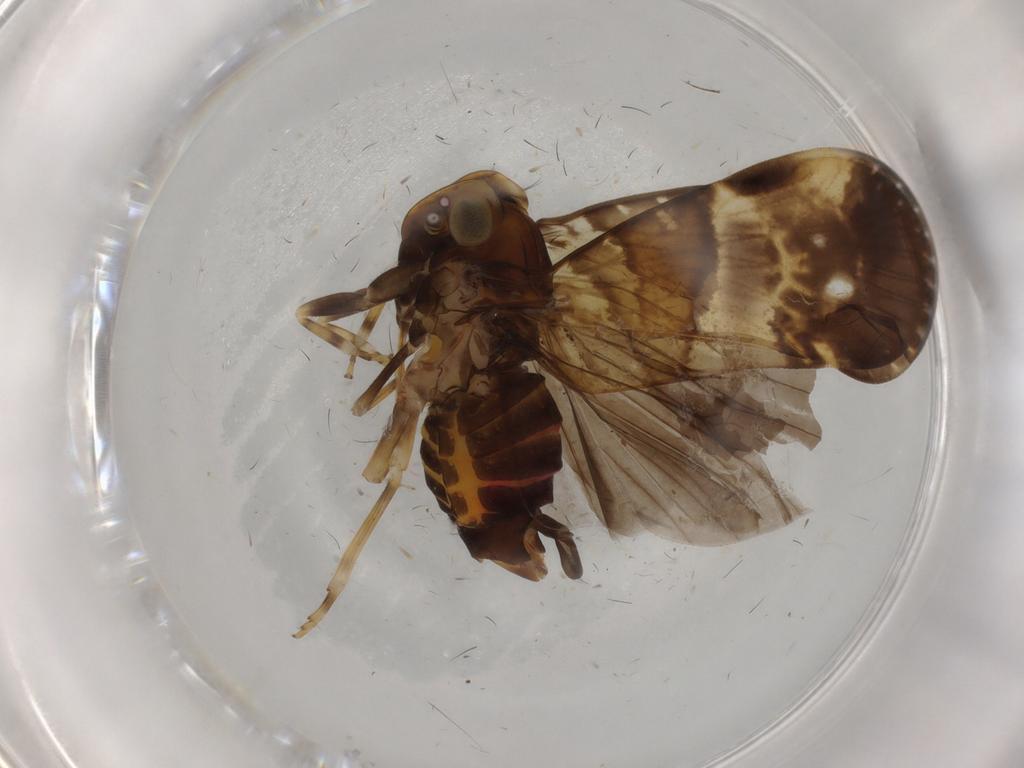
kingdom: Animalia
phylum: Arthropoda
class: Insecta
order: Hemiptera
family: Cixiidae
